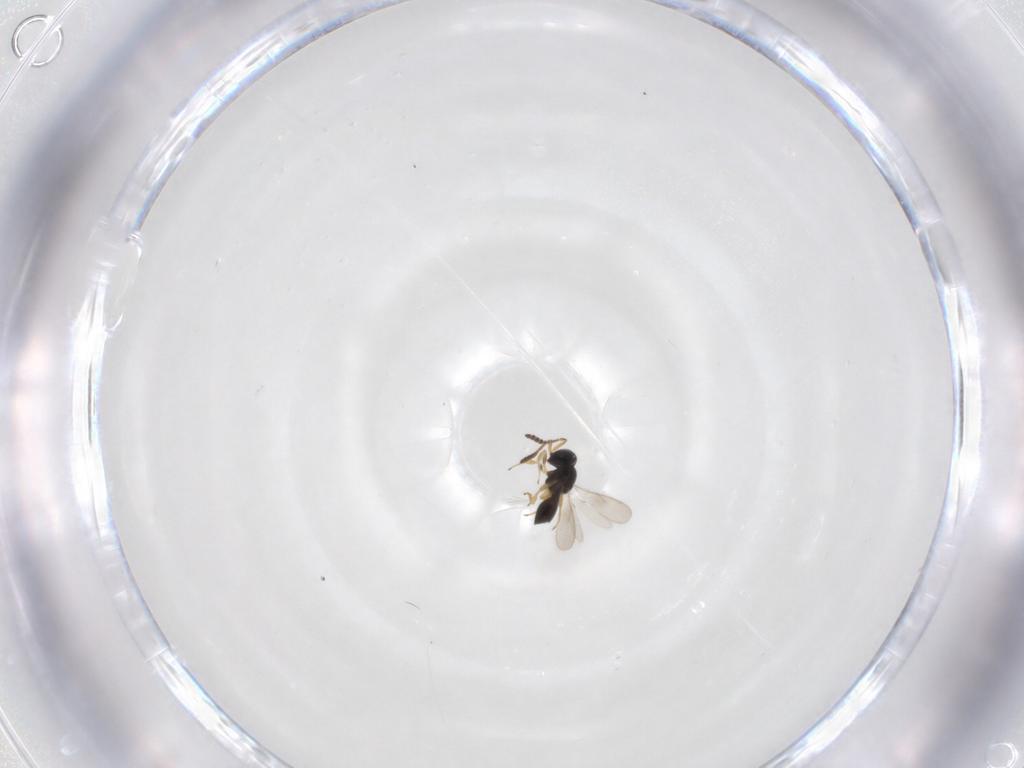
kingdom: Animalia
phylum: Arthropoda
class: Insecta
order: Hymenoptera
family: Scelionidae
